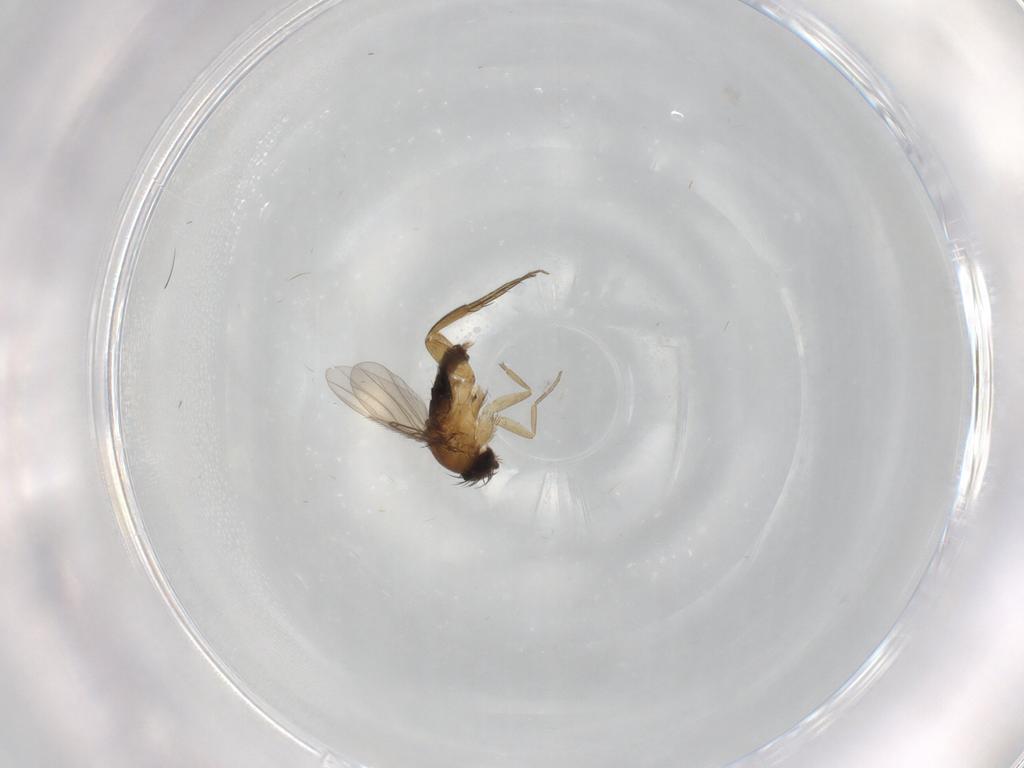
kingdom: Animalia
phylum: Arthropoda
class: Insecta
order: Diptera
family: Phoridae
